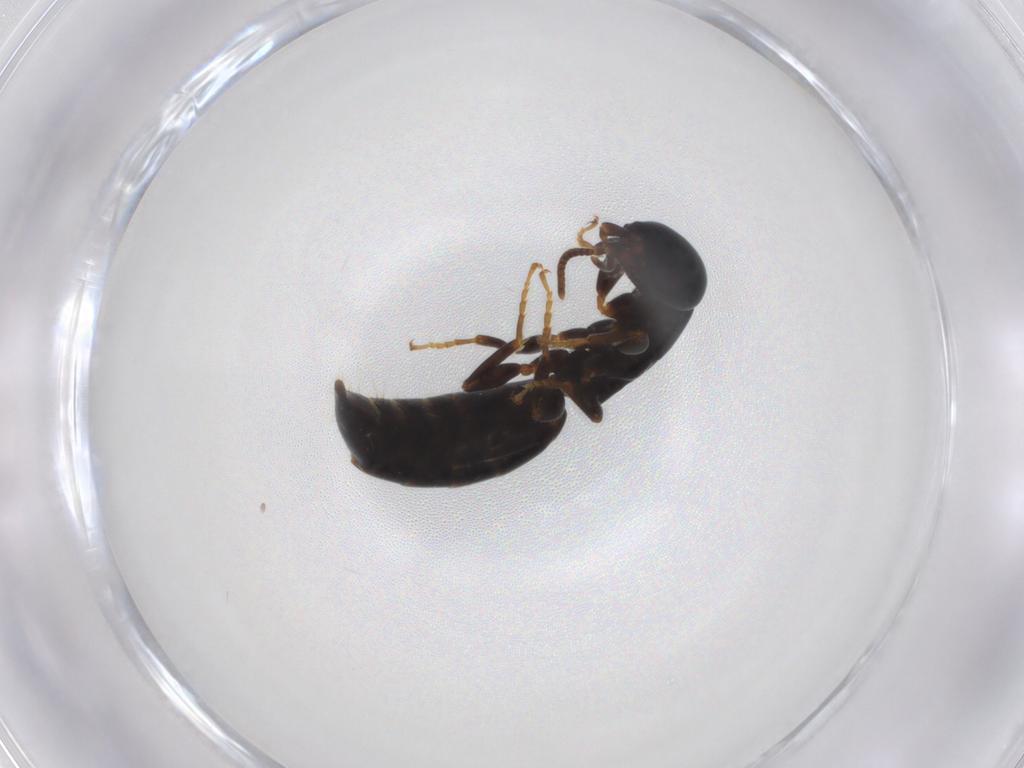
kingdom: Animalia
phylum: Arthropoda
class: Insecta
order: Hymenoptera
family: Bethylidae
